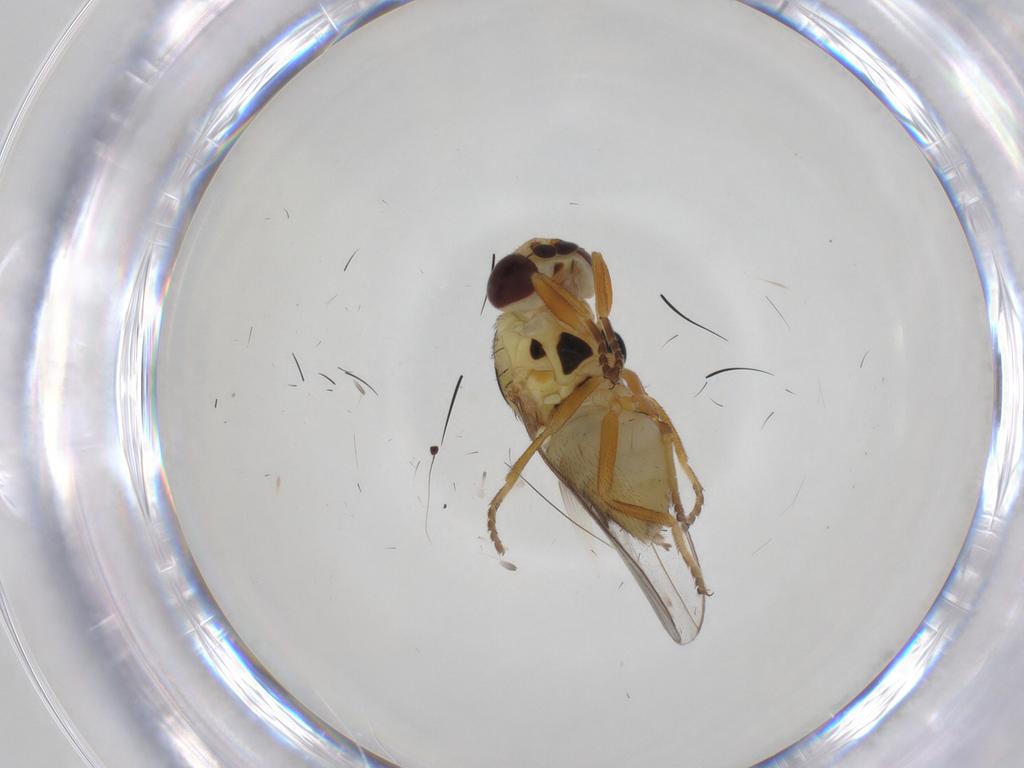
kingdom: Animalia
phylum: Arthropoda
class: Insecta
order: Diptera
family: Chloropidae
